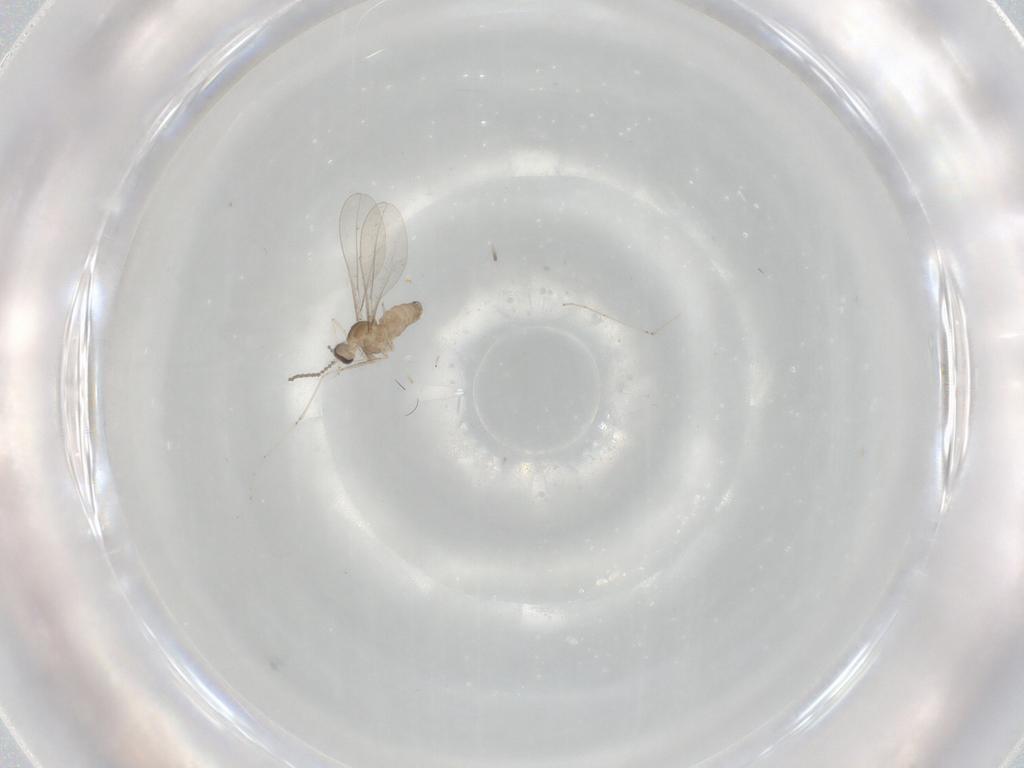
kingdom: Animalia
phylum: Arthropoda
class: Insecta
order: Diptera
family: Cecidomyiidae
